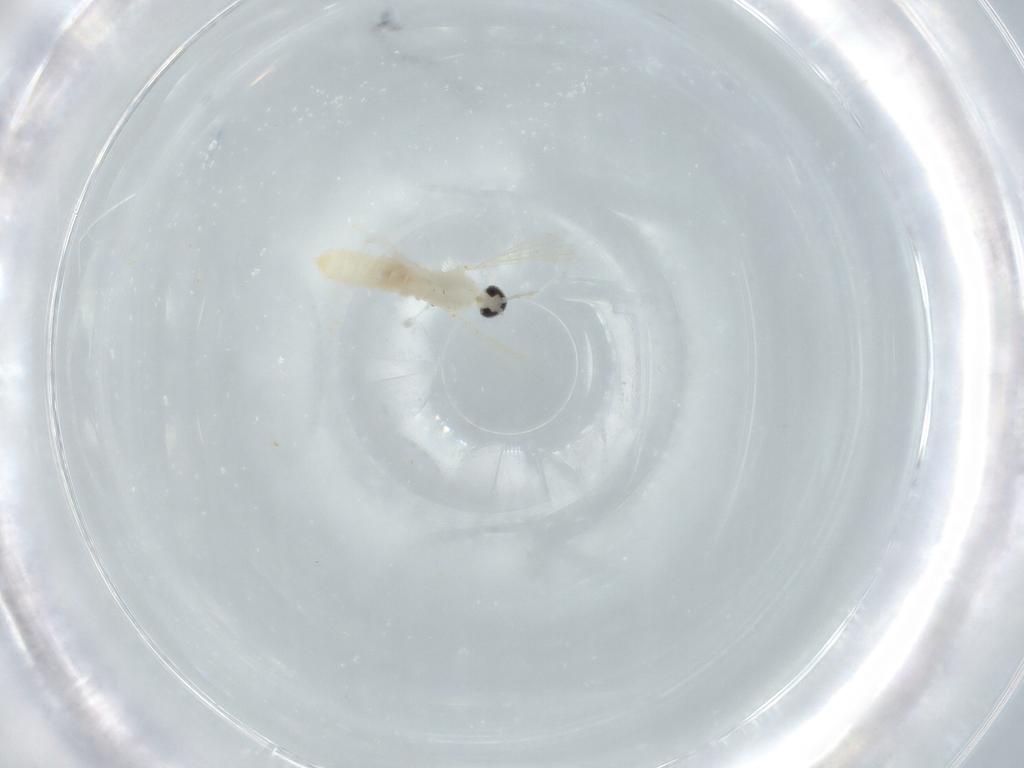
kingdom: Animalia
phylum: Arthropoda
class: Insecta
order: Diptera
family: Cecidomyiidae
